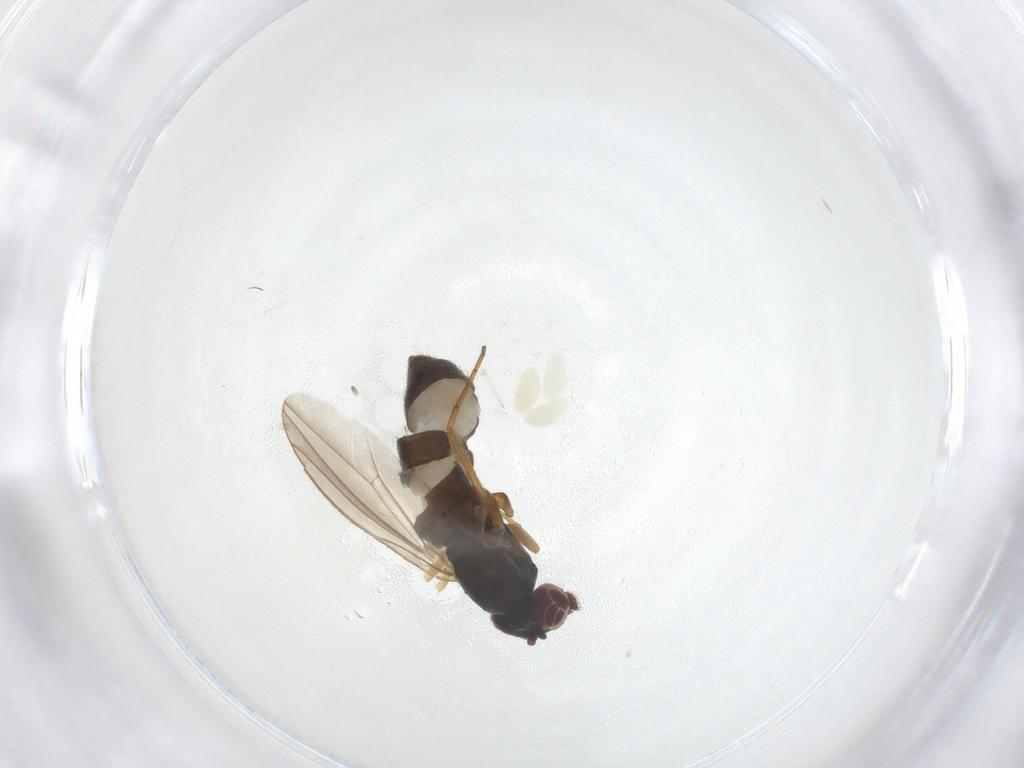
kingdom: Animalia
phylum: Arthropoda
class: Insecta
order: Diptera
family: Dolichopodidae
